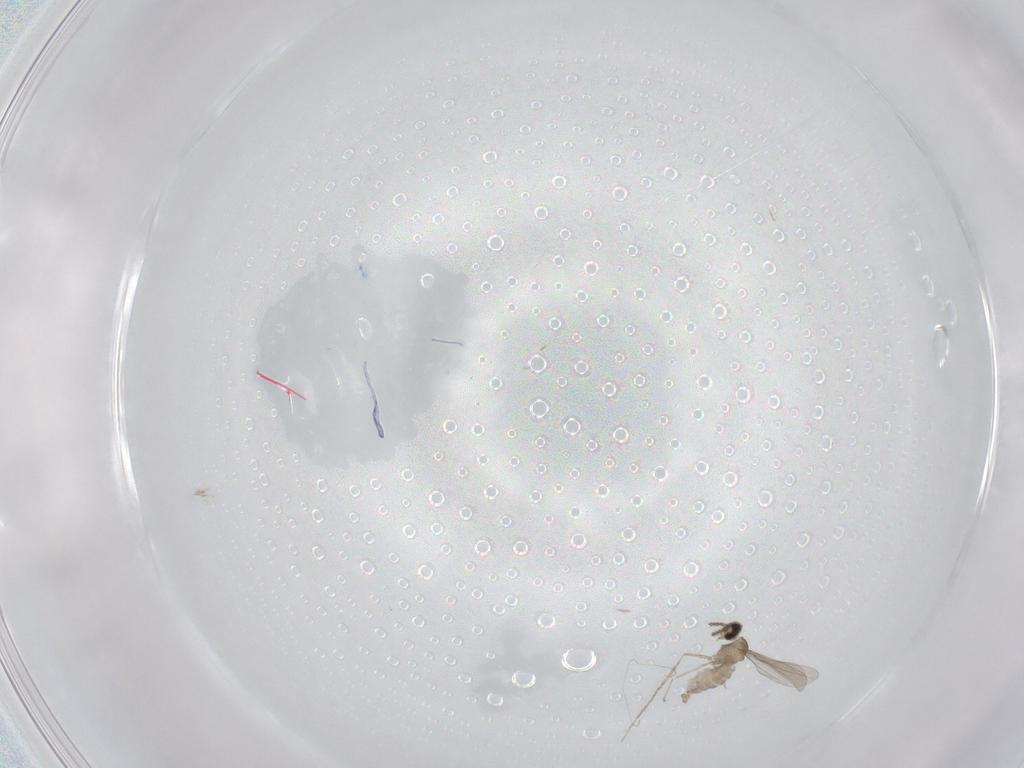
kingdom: Animalia
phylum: Arthropoda
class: Insecta
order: Diptera
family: Cecidomyiidae
